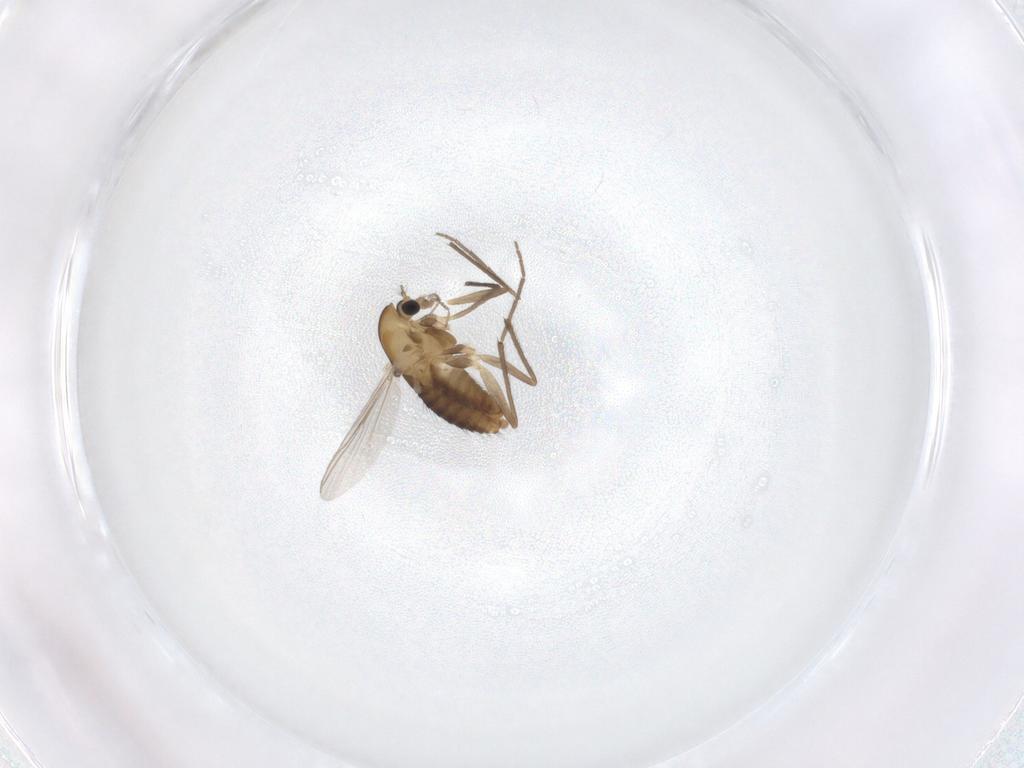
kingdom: Animalia
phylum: Arthropoda
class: Insecta
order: Diptera
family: Chironomidae
